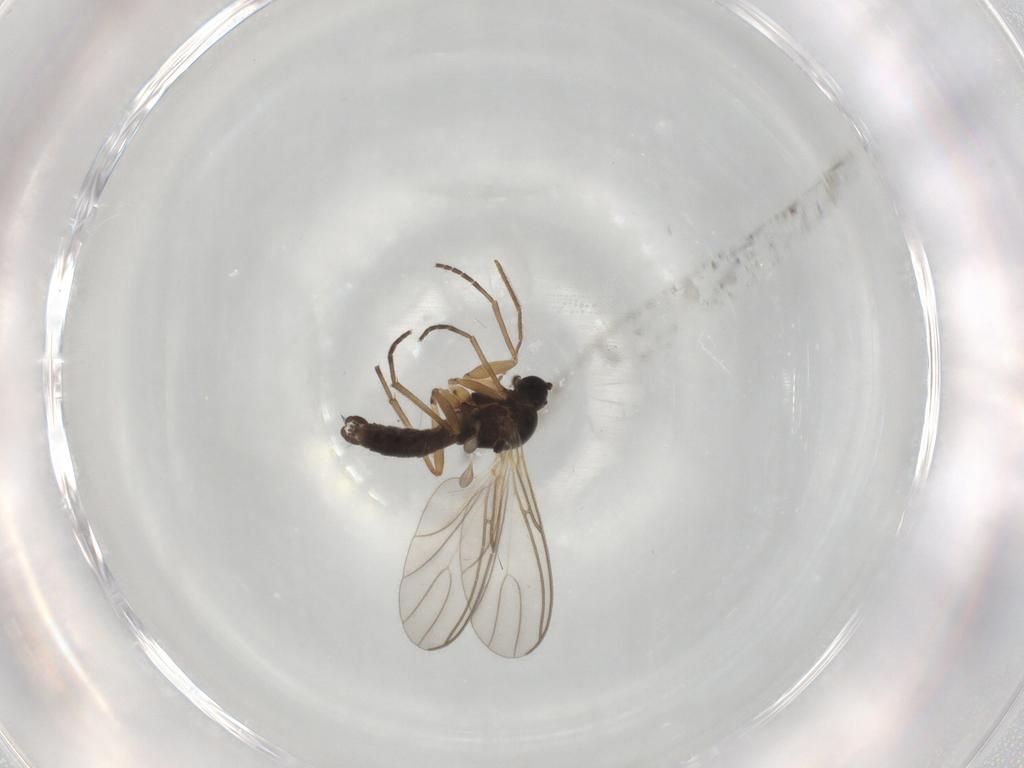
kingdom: Animalia
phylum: Arthropoda
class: Insecta
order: Diptera
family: Sciaridae
